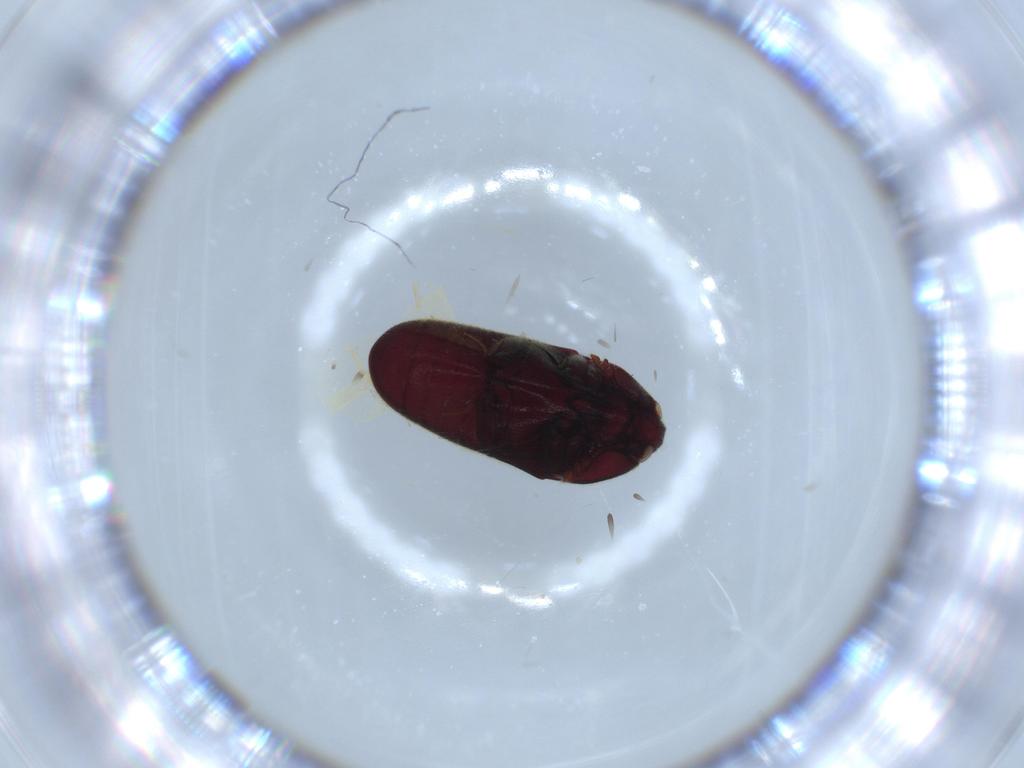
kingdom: Animalia
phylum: Arthropoda
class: Insecta
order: Coleoptera
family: Throscidae
